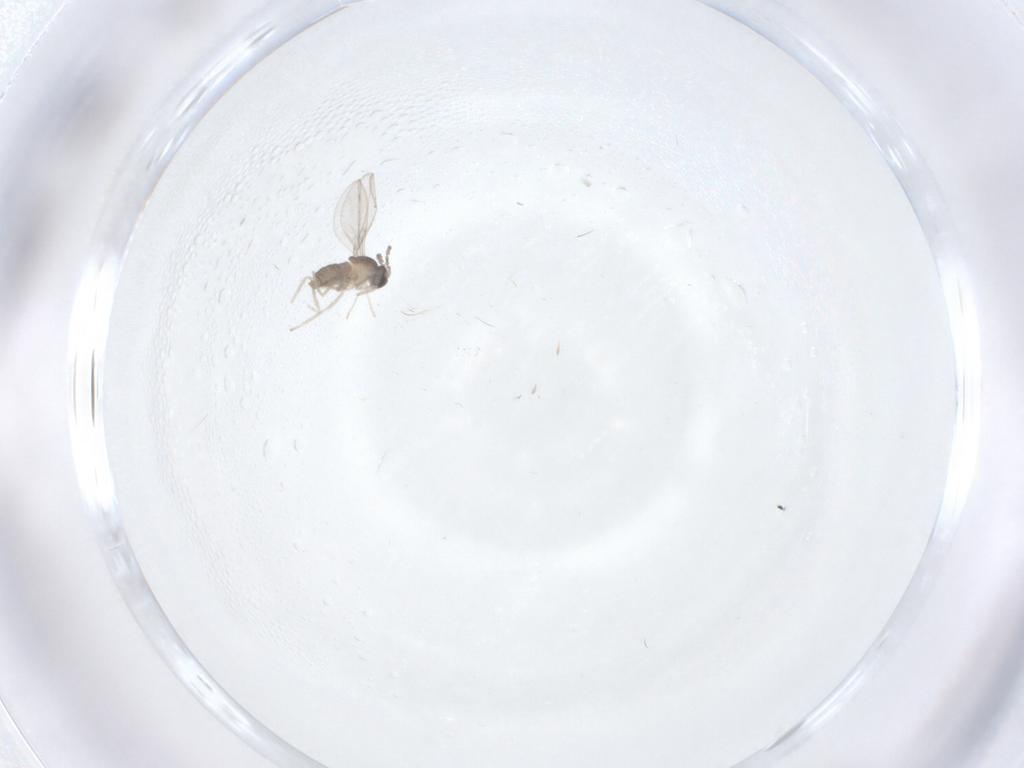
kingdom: Animalia
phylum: Arthropoda
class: Insecta
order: Diptera
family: Cecidomyiidae
